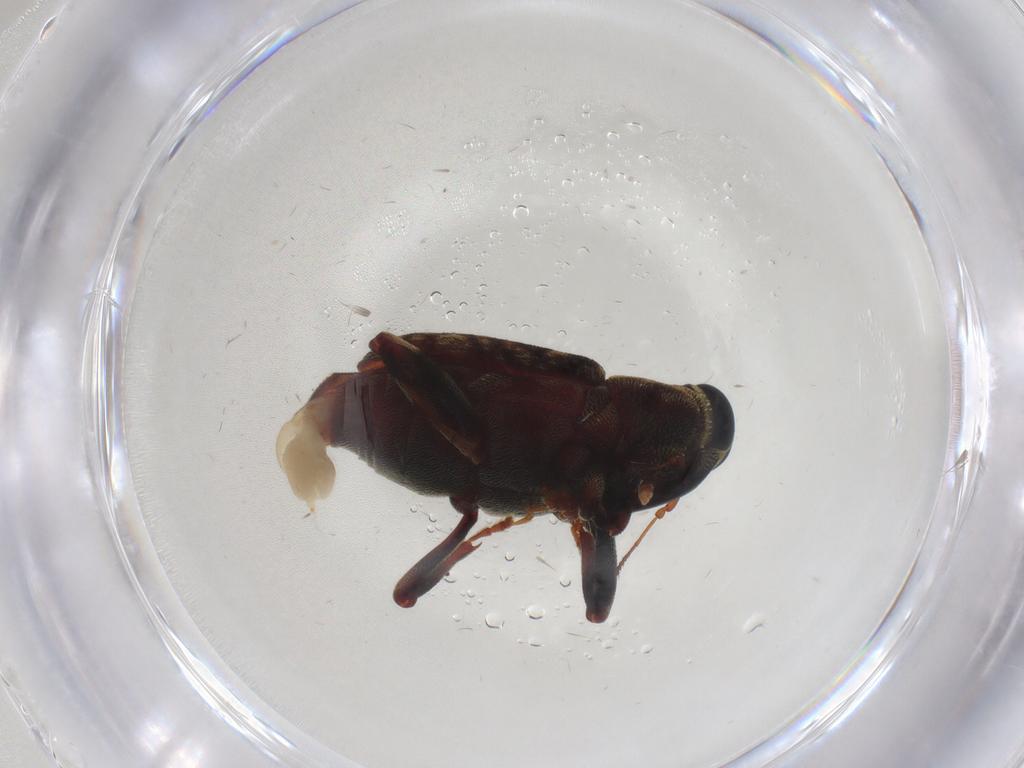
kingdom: Animalia
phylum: Arthropoda
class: Insecta
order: Coleoptera
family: Curculionidae
